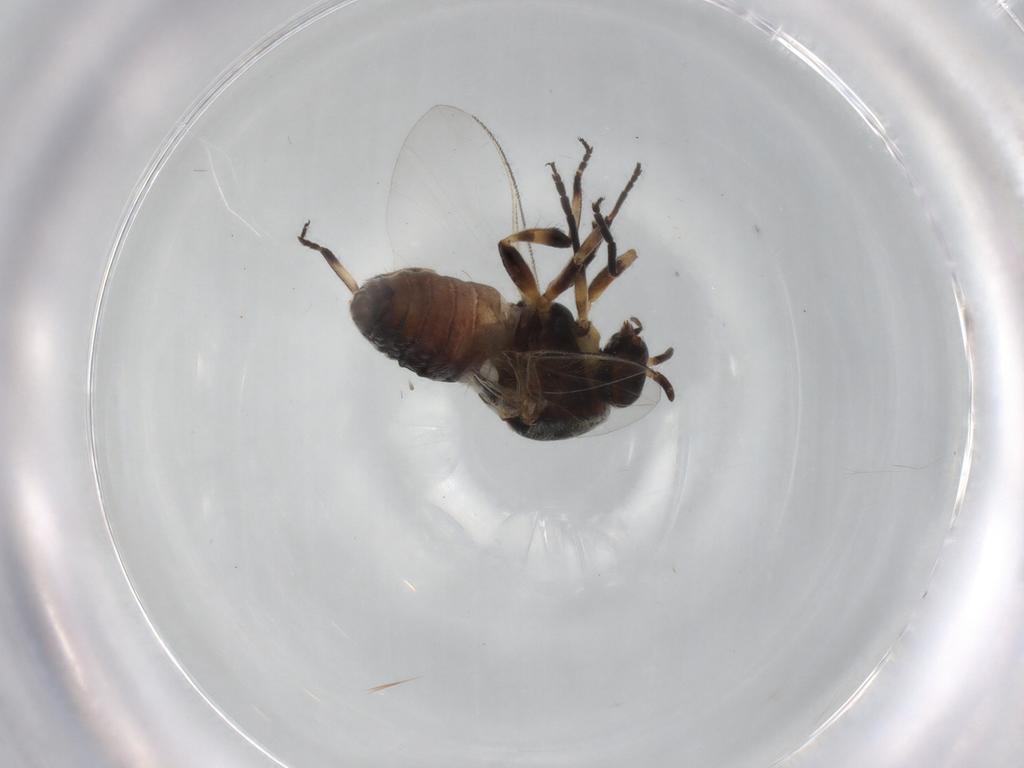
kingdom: Animalia
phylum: Arthropoda
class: Insecta
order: Diptera
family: Chloropidae
